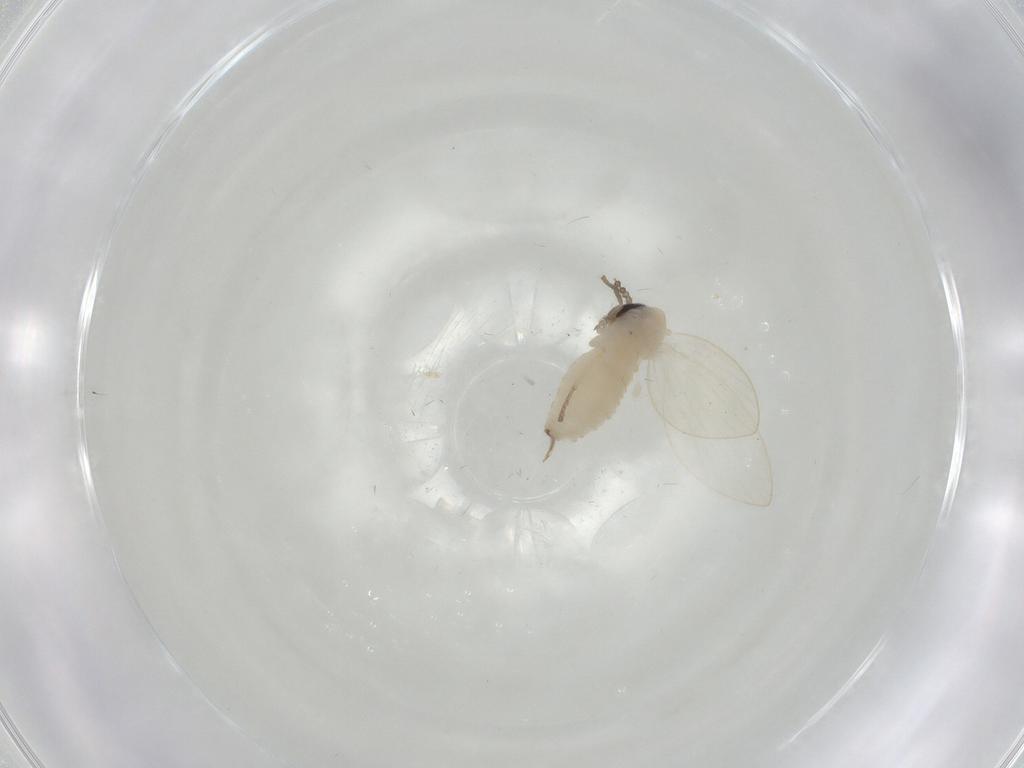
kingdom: Animalia
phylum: Arthropoda
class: Insecta
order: Diptera
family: Psychodidae
